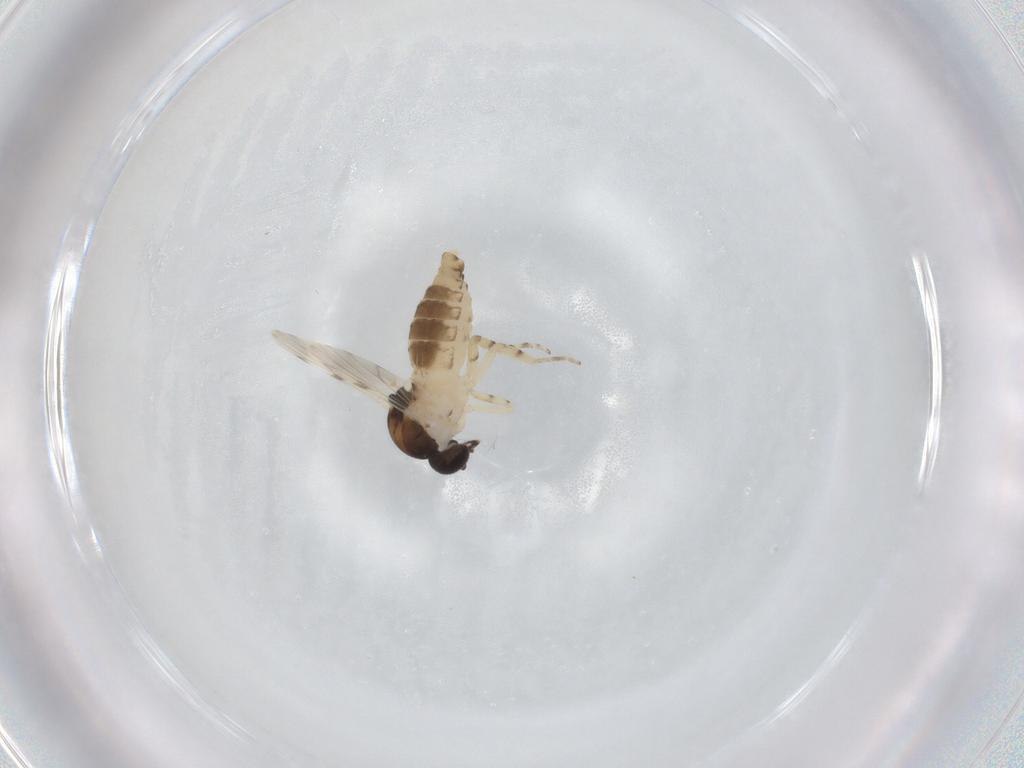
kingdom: Animalia
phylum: Arthropoda
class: Insecta
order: Diptera
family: Ceratopogonidae
